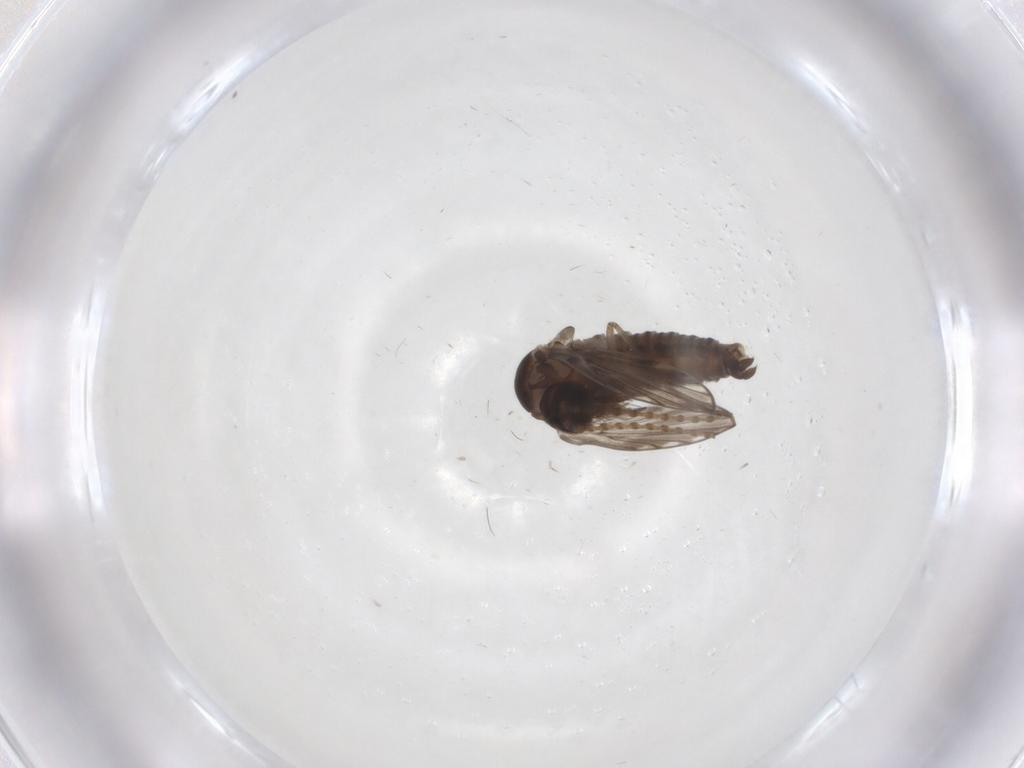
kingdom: Animalia
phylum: Arthropoda
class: Insecta
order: Diptera
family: Psychodidae
